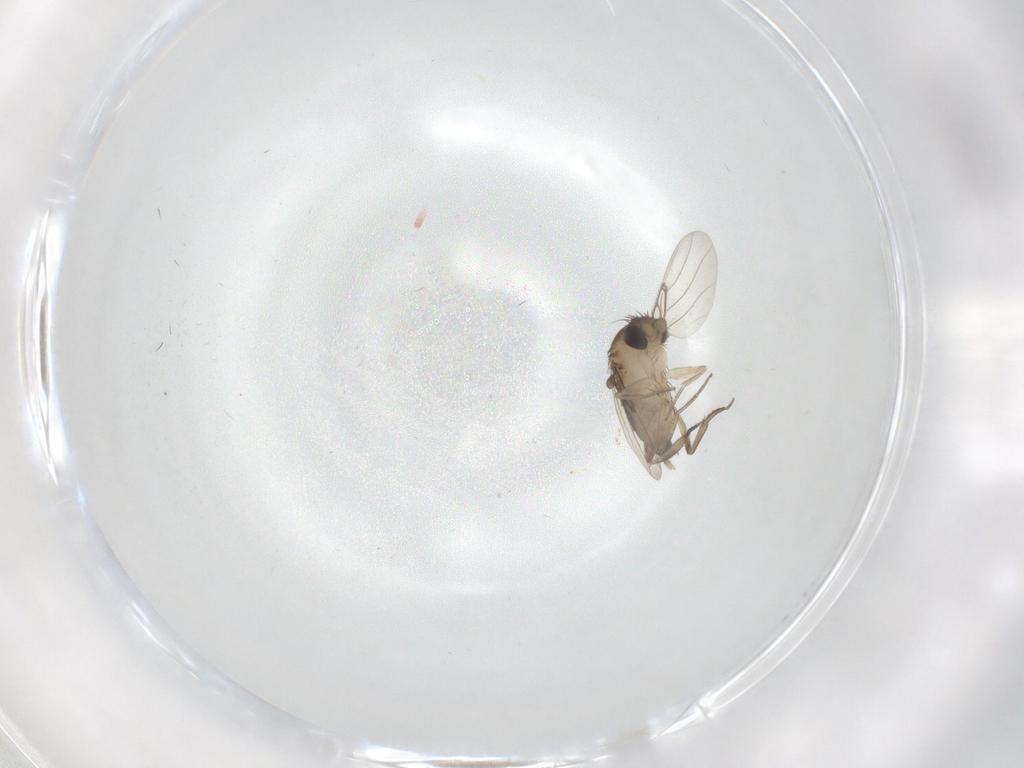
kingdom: Animalia
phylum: Arthropoda
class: Insecta
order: Diptera
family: Phoridae
